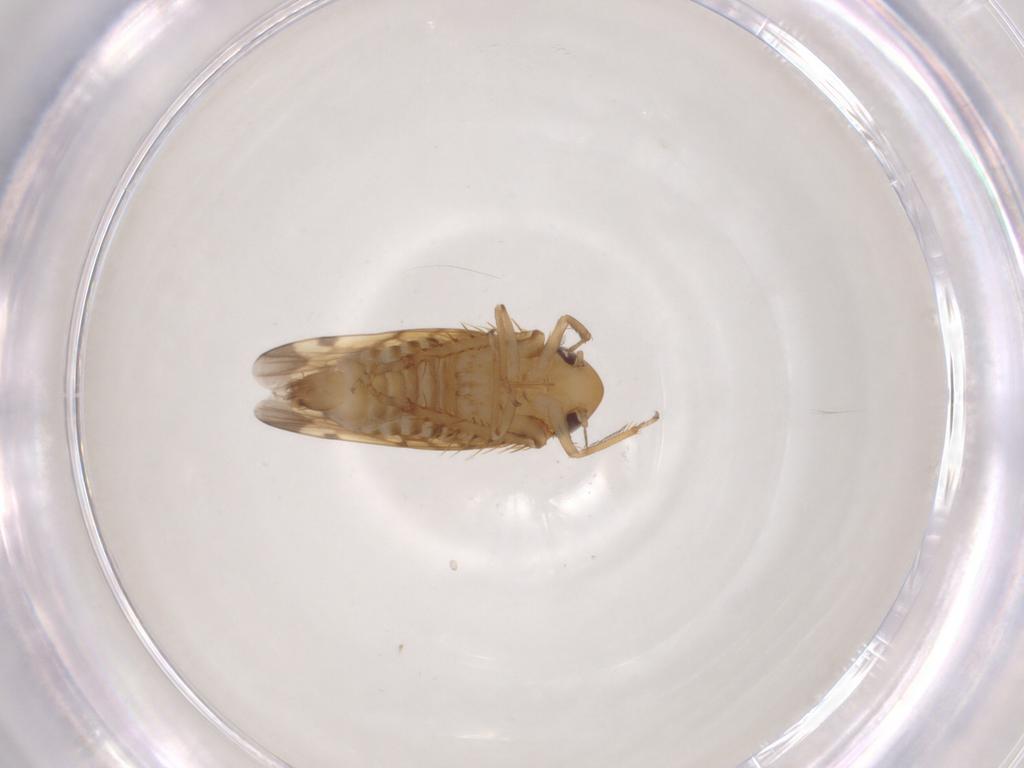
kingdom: Animalia
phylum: Arthropoda
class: Insecta
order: Hemiptera
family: Cicadellidae
